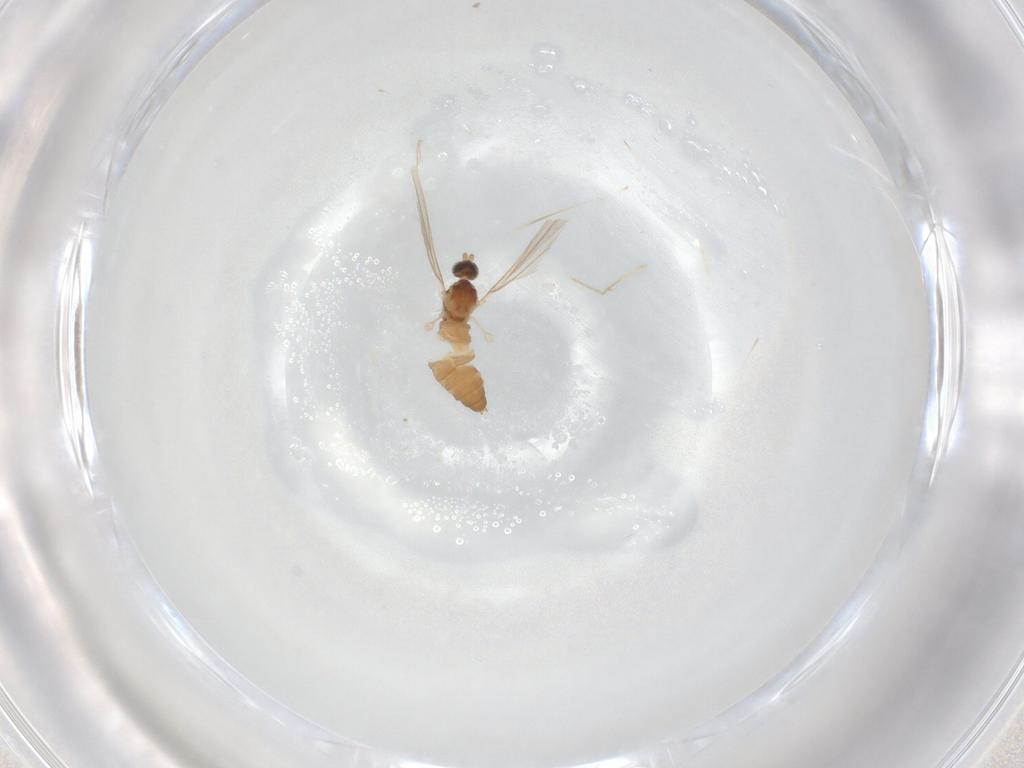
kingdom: Animalia
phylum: Arthropoda
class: Insecta
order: Diptera
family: Cecidomyiidae
